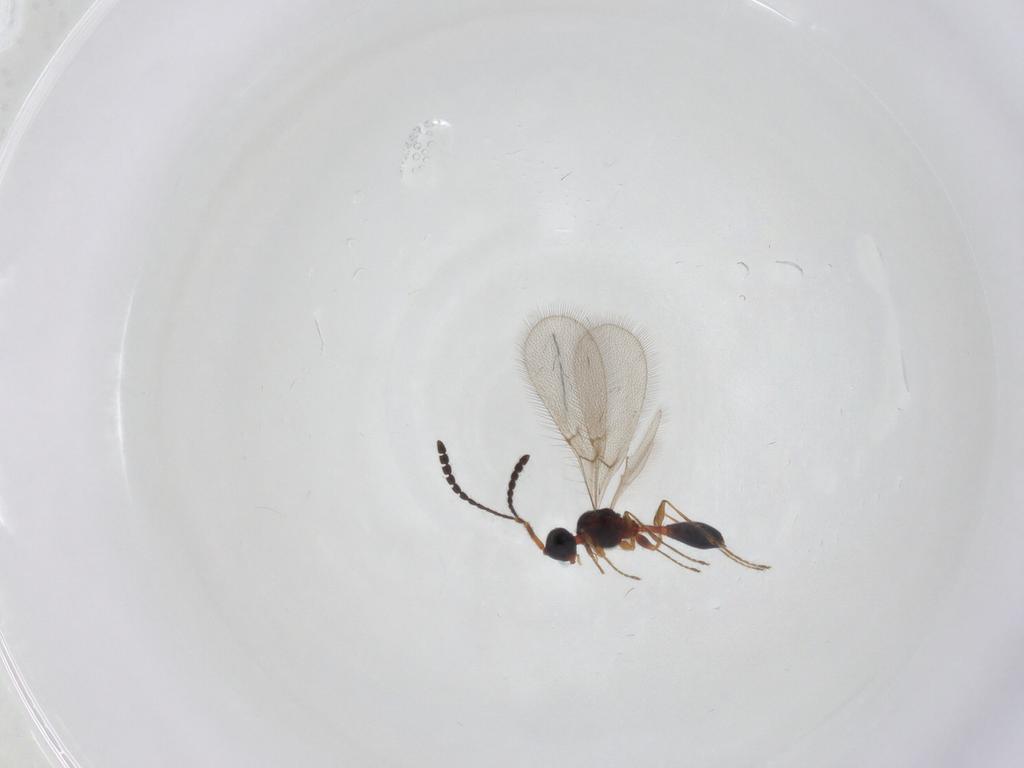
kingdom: Animalia
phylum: Arthropoda
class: Insecta
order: Hymenoptera
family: Diapriidae
